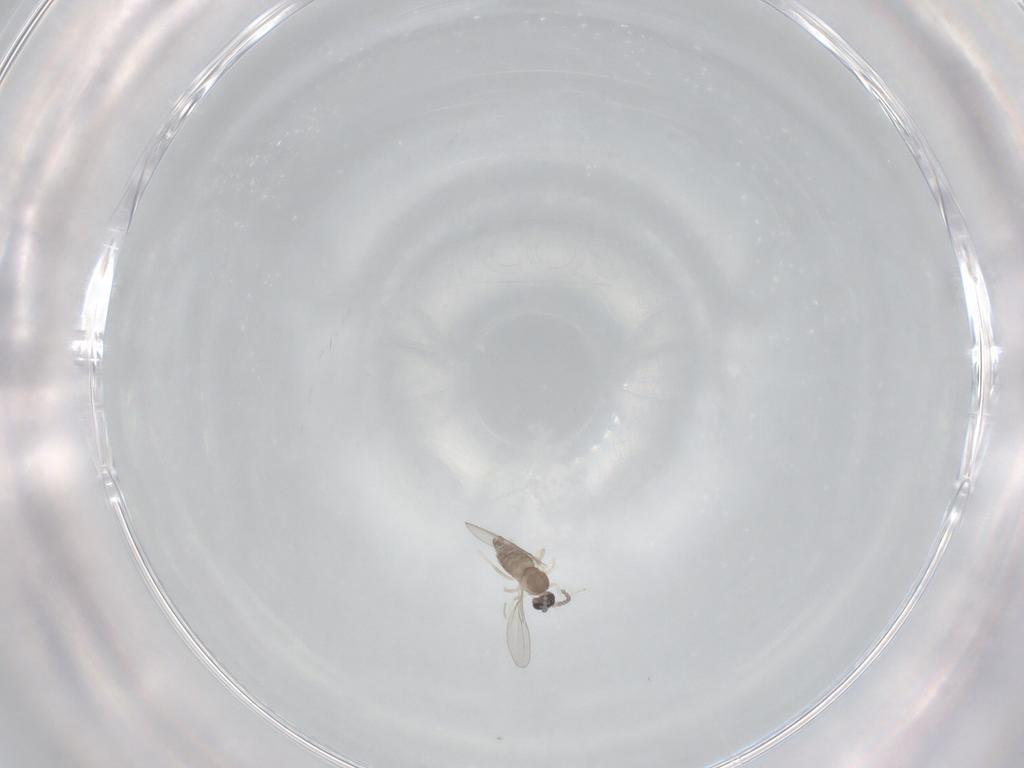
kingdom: Animalia
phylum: Arthropoda
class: Insecta
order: Diptera
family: Cecidomyiidae
